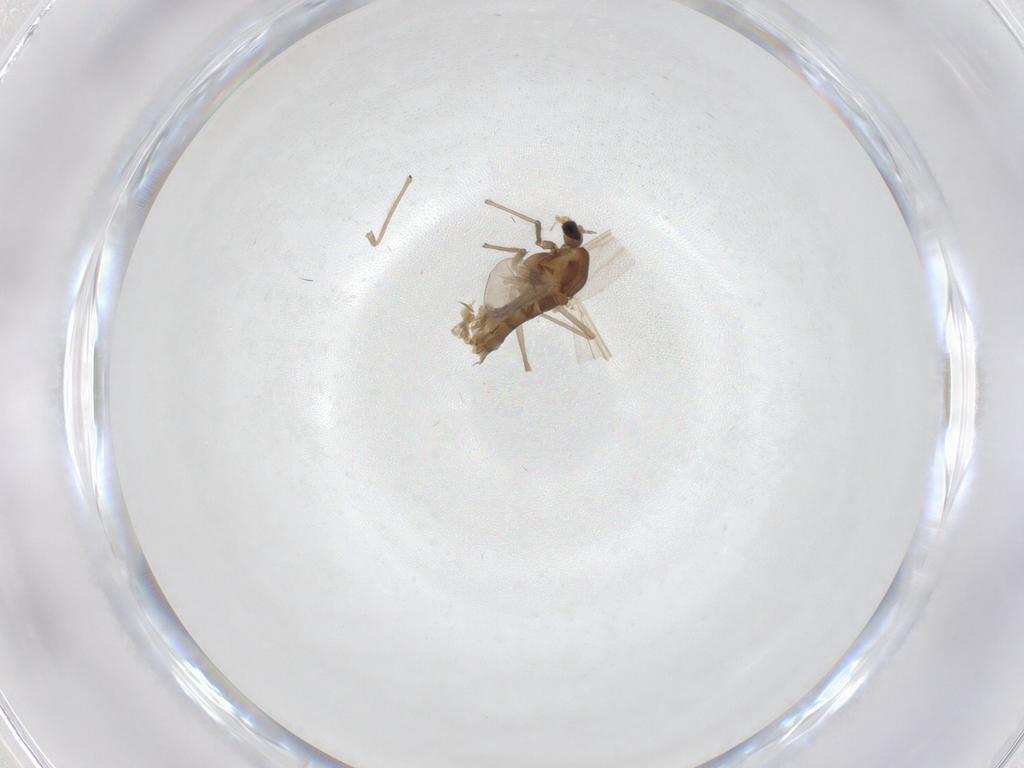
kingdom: Animalia
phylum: Arthropoda
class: Insecta
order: Diptera
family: Chironomidae
